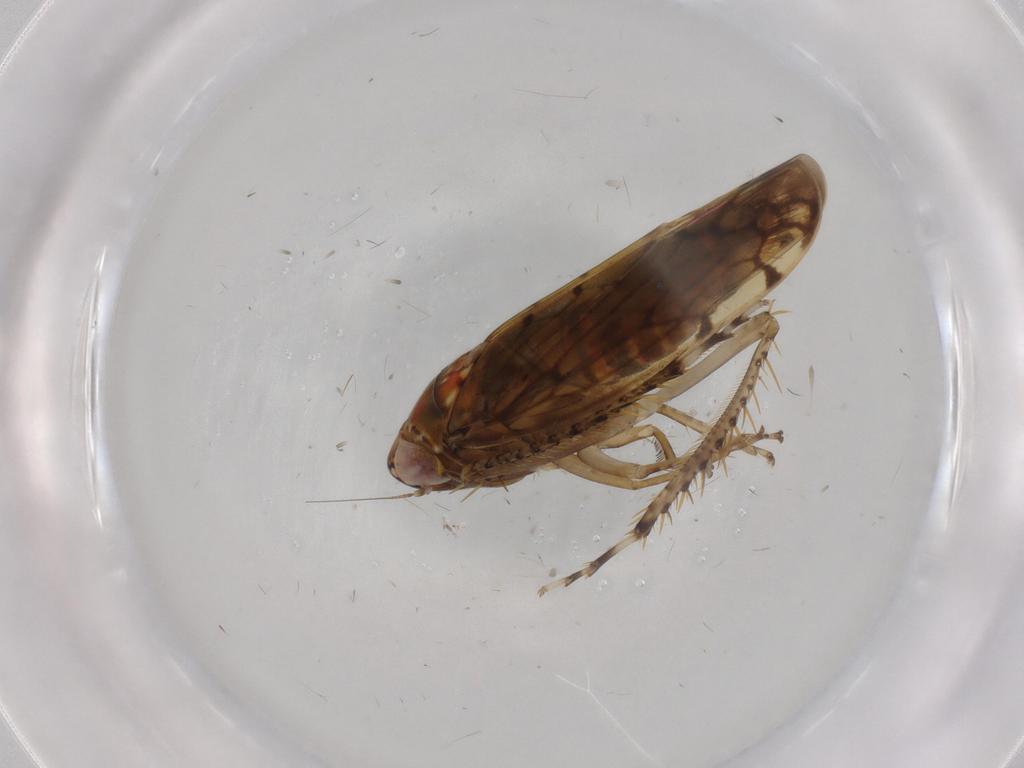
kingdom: Animalia
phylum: Arthropoda
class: Insecta
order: Hemiptera
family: Cicadellidae
